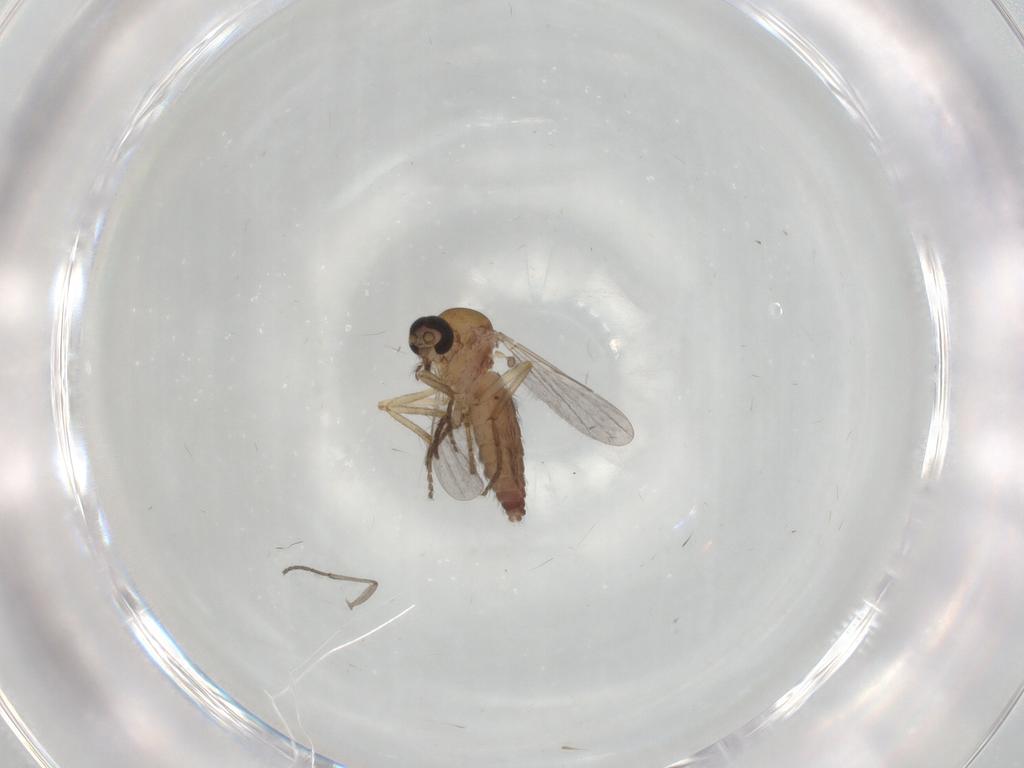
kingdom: Animalia
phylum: Arthropoda
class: Insecta
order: Diptera
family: Ceratopogonidae
